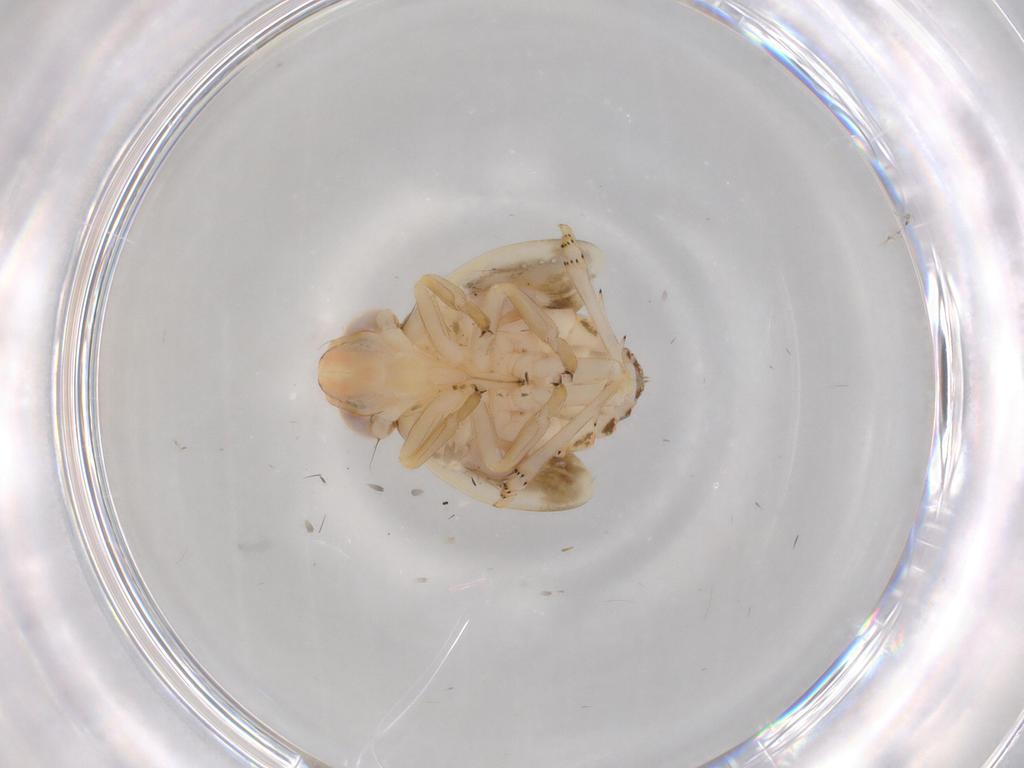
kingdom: Animalia
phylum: Arthropoda
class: Insecta
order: Hemiptera
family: Nogodinidae
